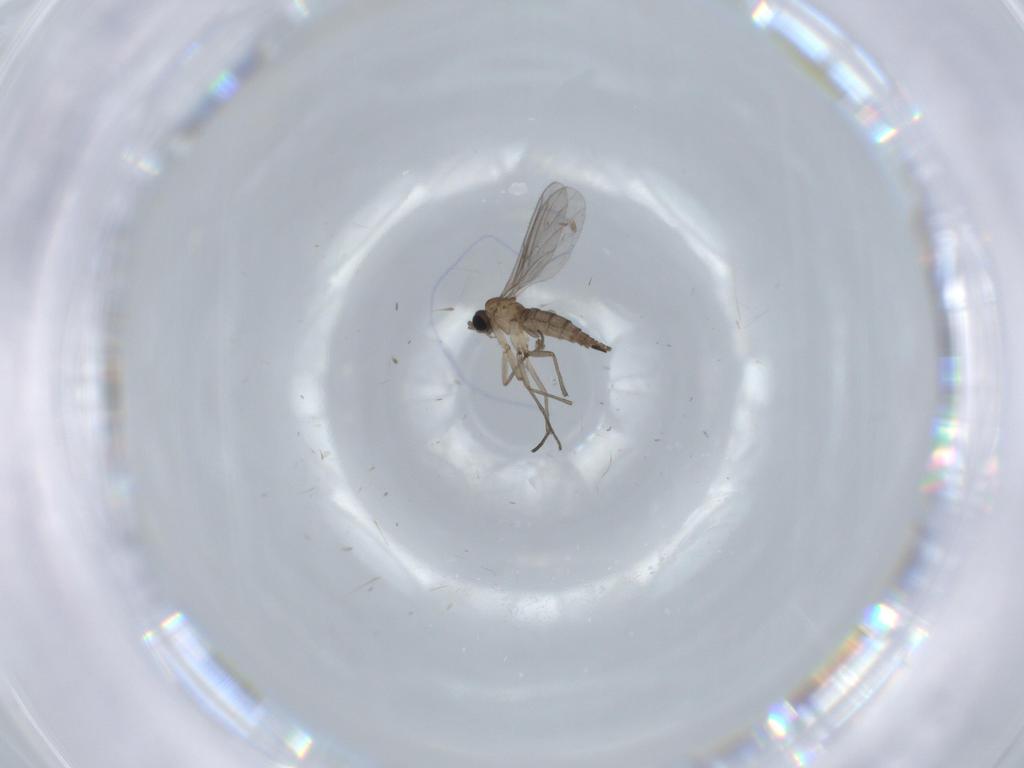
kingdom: Animalia
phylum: Arthropoda
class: Insecta
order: Diptera
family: Sciaridae
